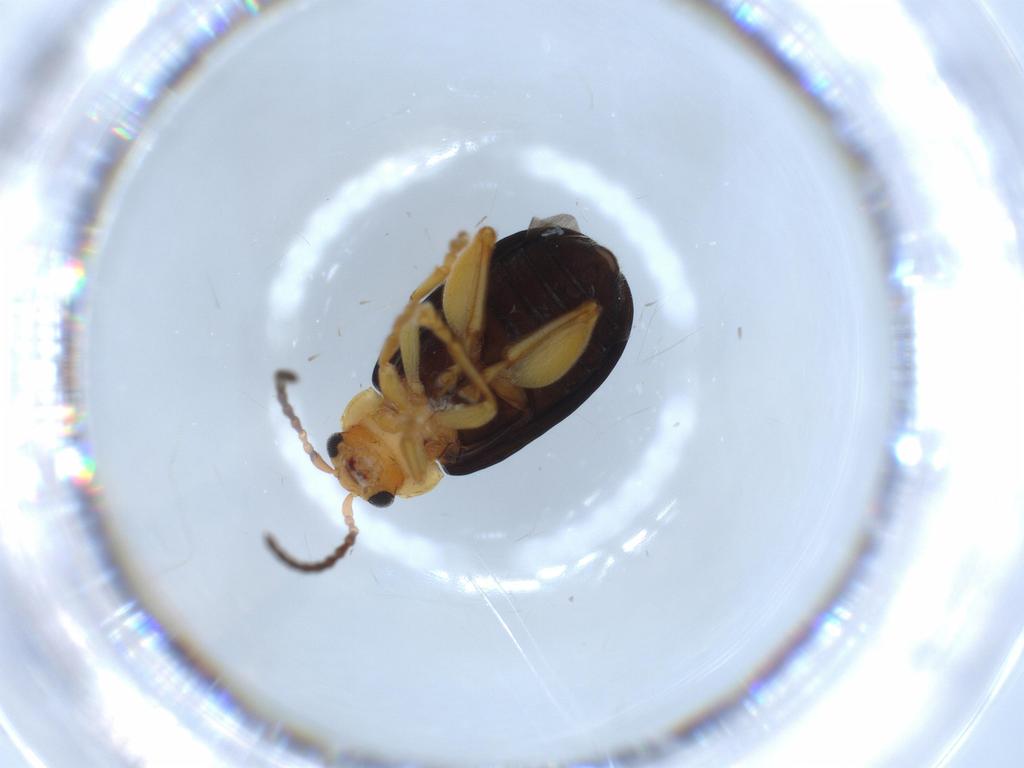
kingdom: Animalia
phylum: Arthropoda
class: Insecta
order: Coleoptera
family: Chrysomelidae
